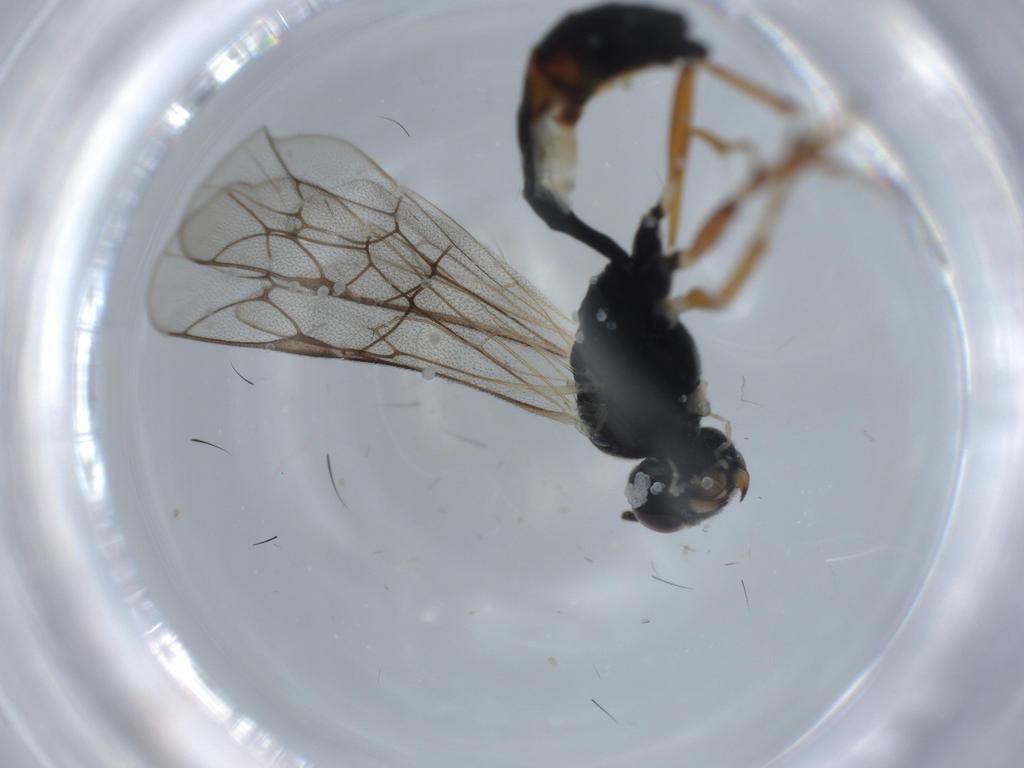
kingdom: Animalia
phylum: Arthropoda
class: Insecta
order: Hymenoptera
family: Ichneumonidae
